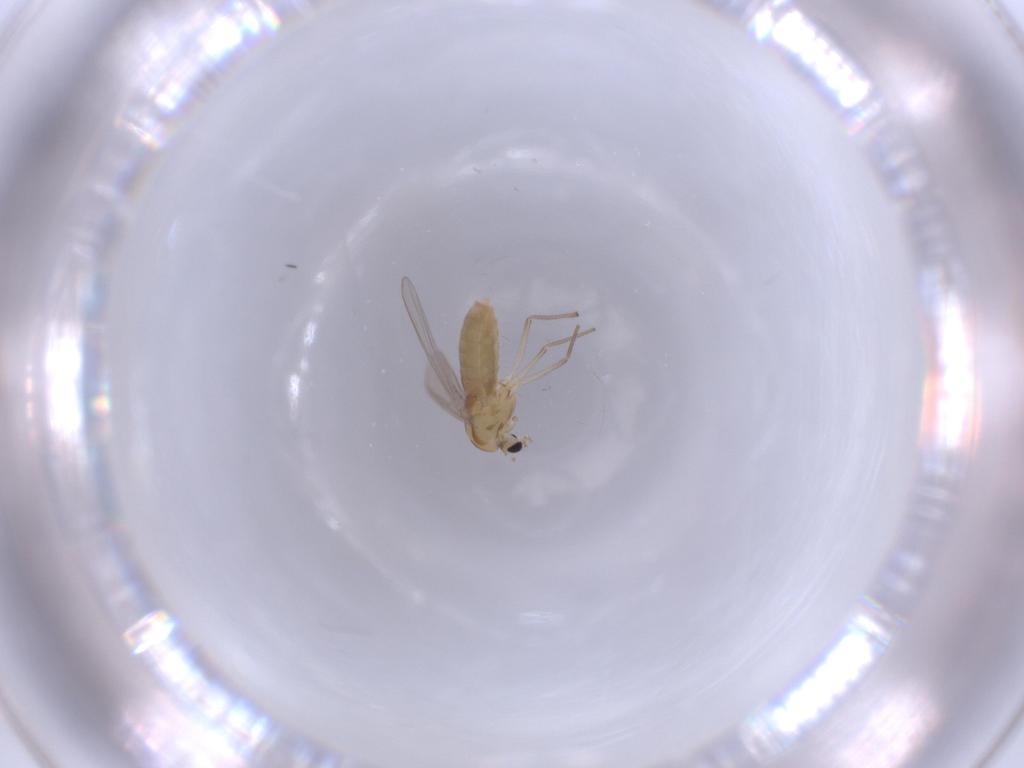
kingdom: Animalia
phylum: Arthropoda
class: Insecta
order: Diptera
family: Chironomidae
